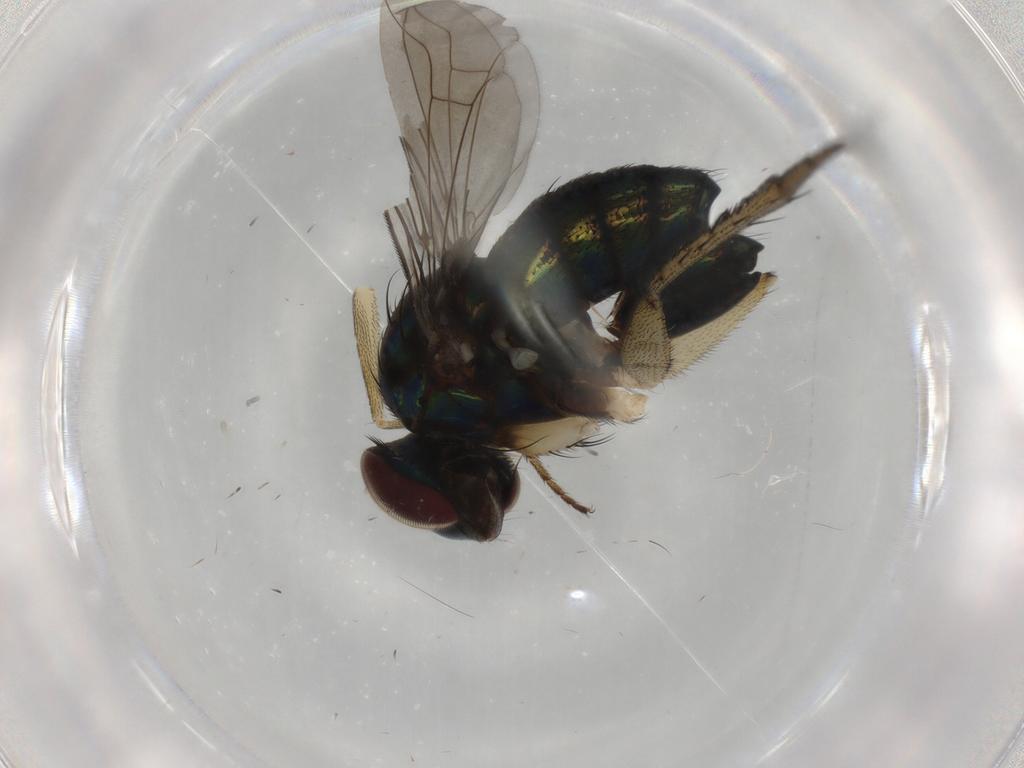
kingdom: Animalia
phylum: Arthropoda
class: Insecta
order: Diptera
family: Dolichopodidae
